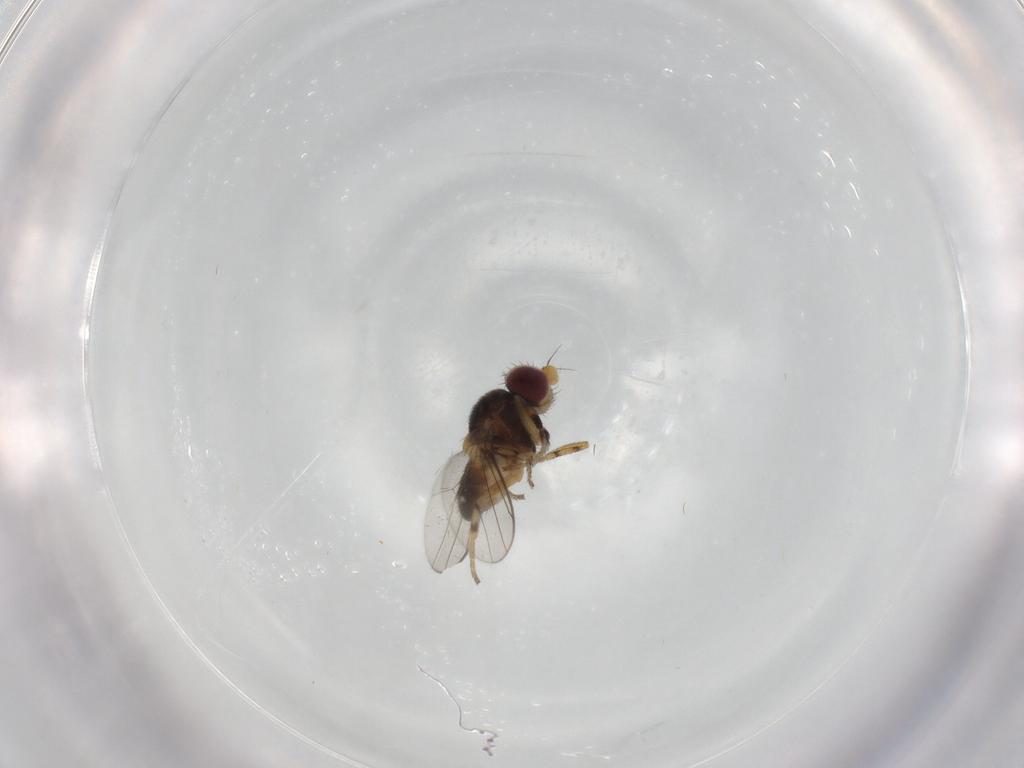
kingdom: Animalia
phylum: Arthropoda
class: Insecta
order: Diptera
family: Chloropidae
